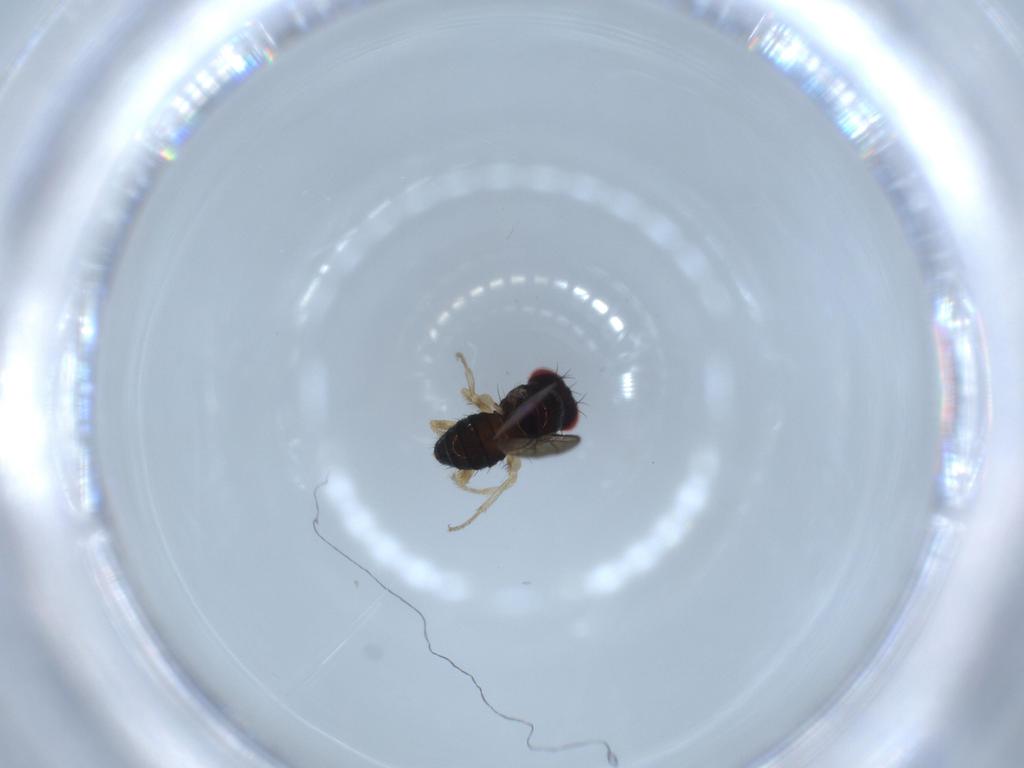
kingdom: Animalia
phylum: Arthropoda
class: Insecta
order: Diptera
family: Drosophilidae
